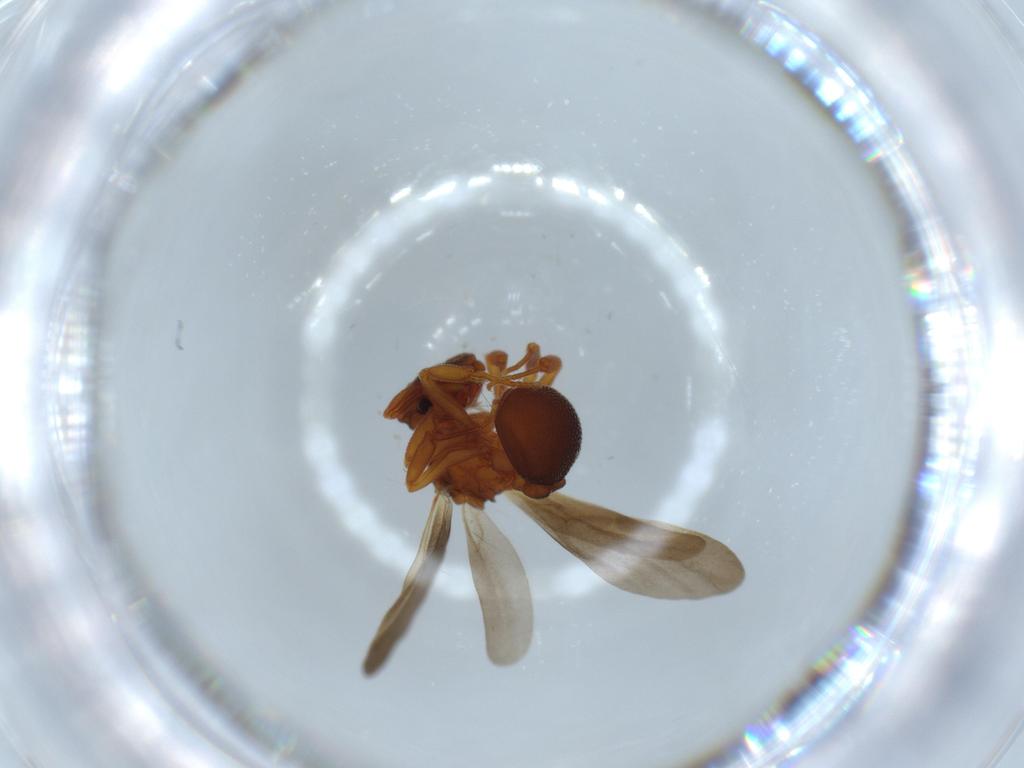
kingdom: Animalia
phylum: Arthropoda
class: Insecta
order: Hymenoptera
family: Formicidae
